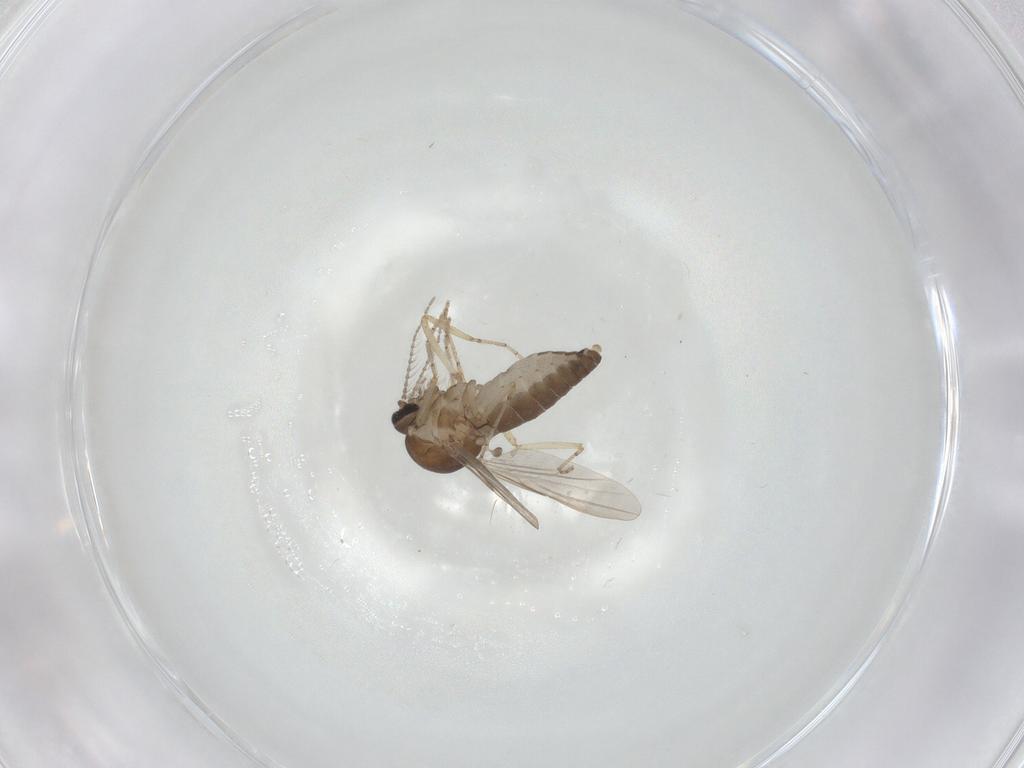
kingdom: Animalia
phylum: Arthropoda
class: Insecta
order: Diptera
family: Ceratopogonidae
